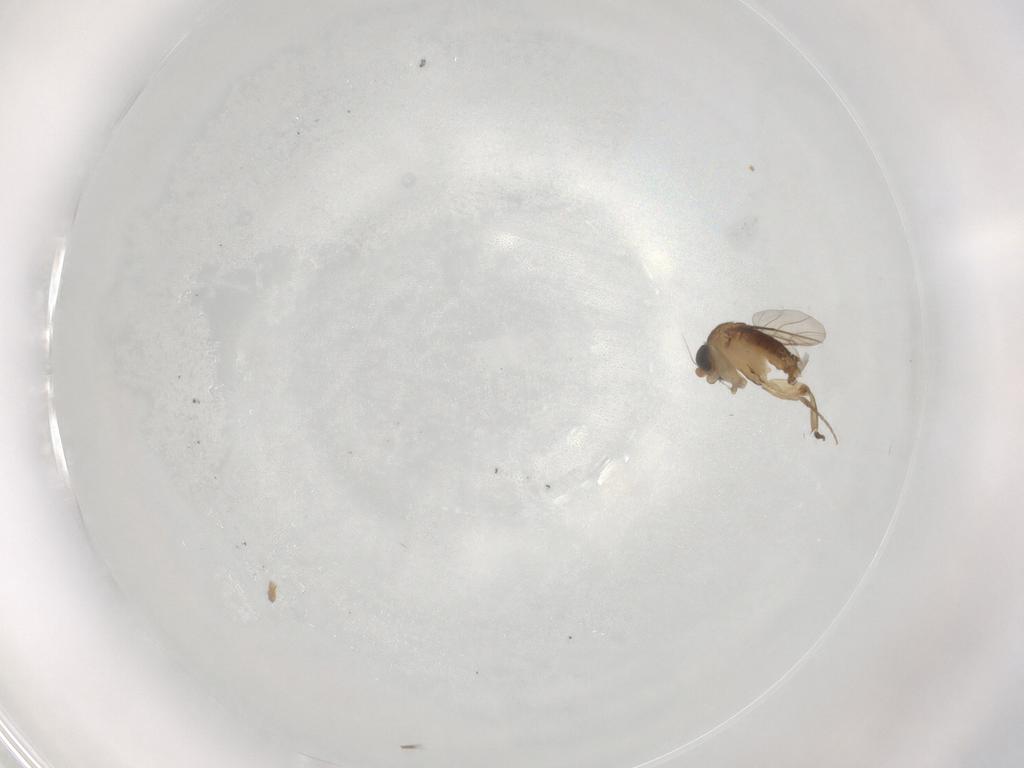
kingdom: Animalia
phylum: Arthropoda
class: Insecta
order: Diptera
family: Phoridae
